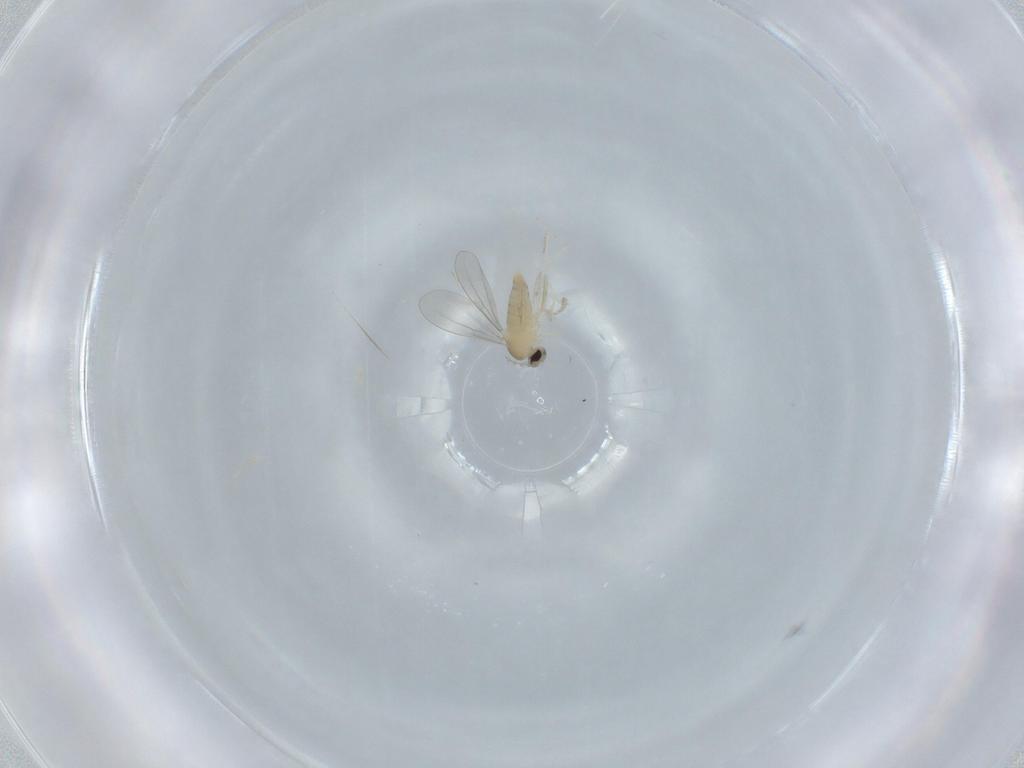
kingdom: Animalia
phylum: Arthropoda
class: Insecta
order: Diptera
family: Cecidomyiidae
